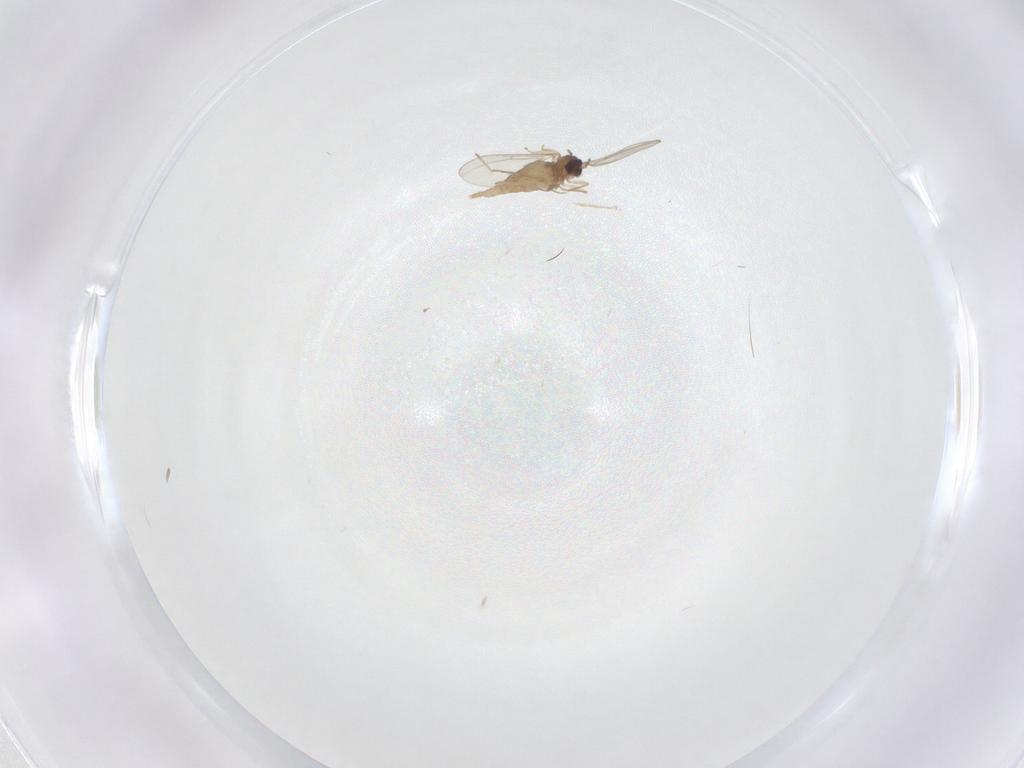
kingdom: Animalia
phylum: Arthropoda
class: Insecta
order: Diptera
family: Cecidomyiidae
